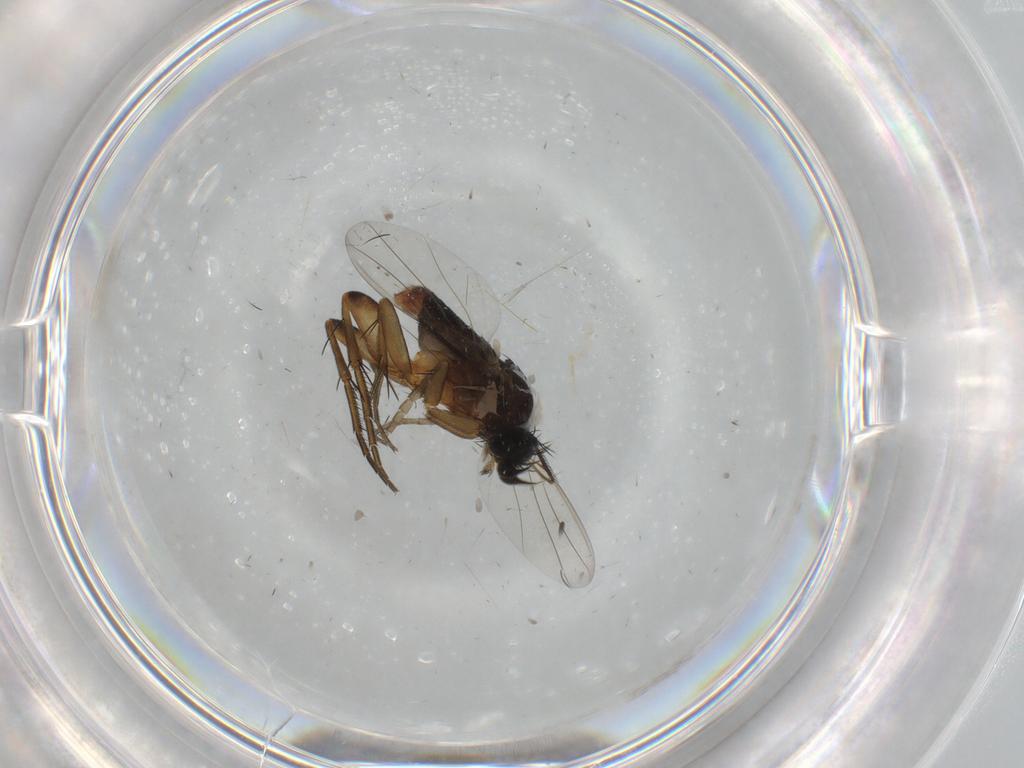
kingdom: Animalia
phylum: Arthropoda
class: Insecta
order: Diptera
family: Phoridae
